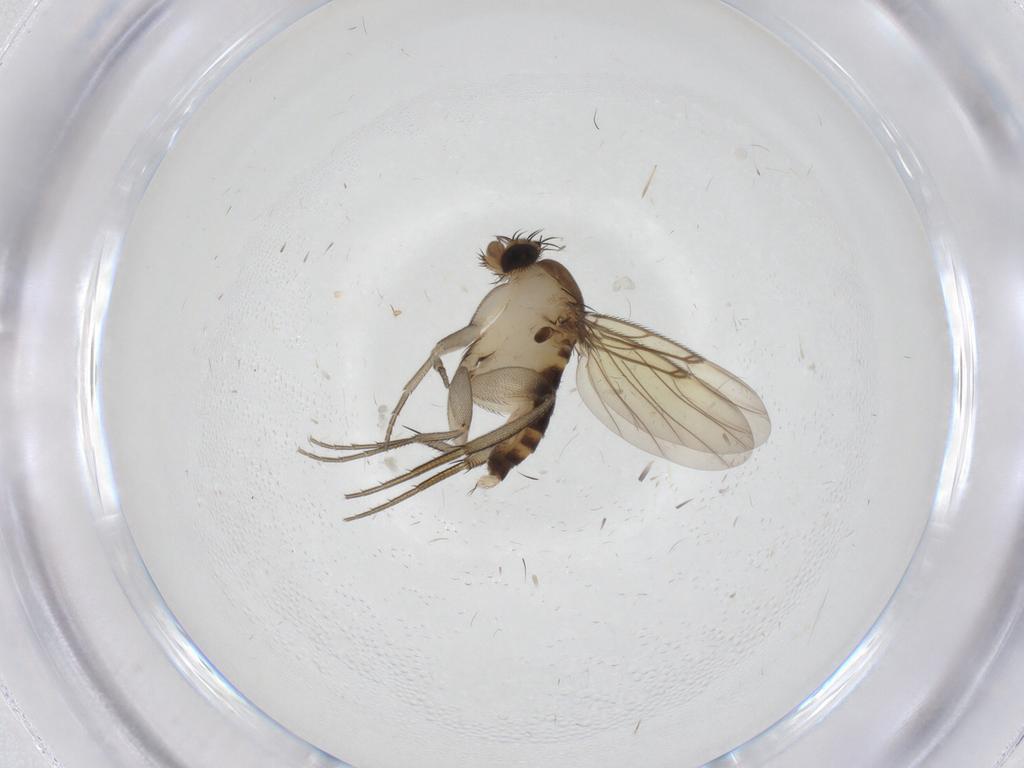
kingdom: Animalia
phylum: Arthropoda
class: Insecta
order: Diptera
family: Phoridae
